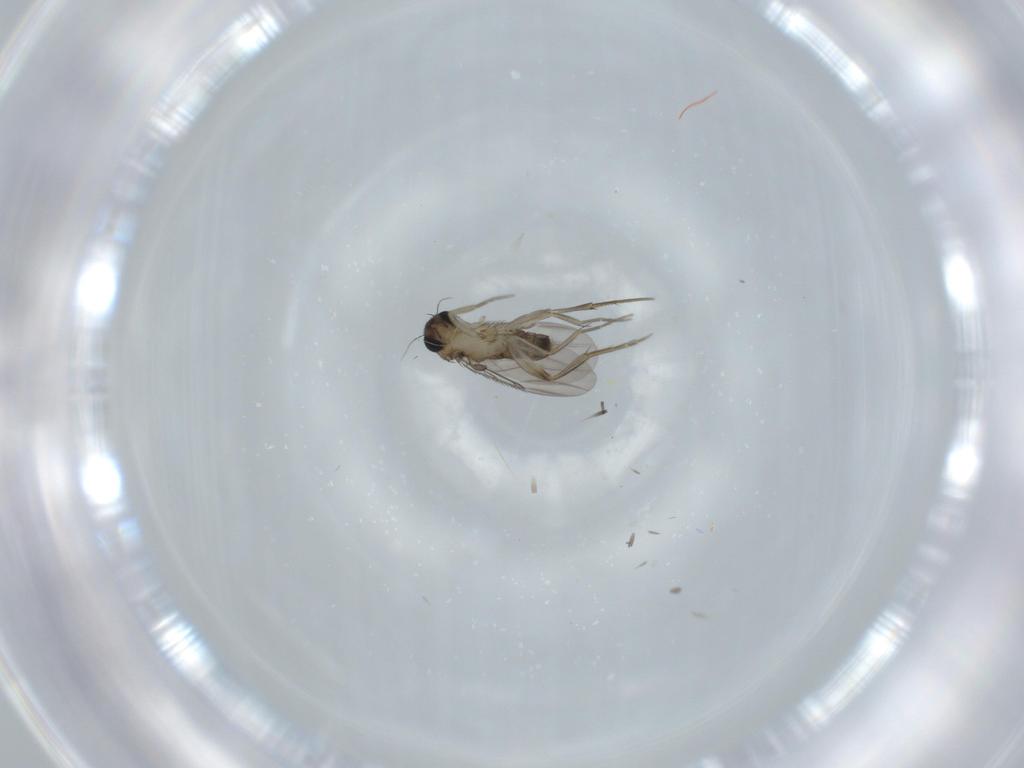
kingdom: Animalia
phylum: Arthropoda
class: Insecta
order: Diptera
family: Phoridae
